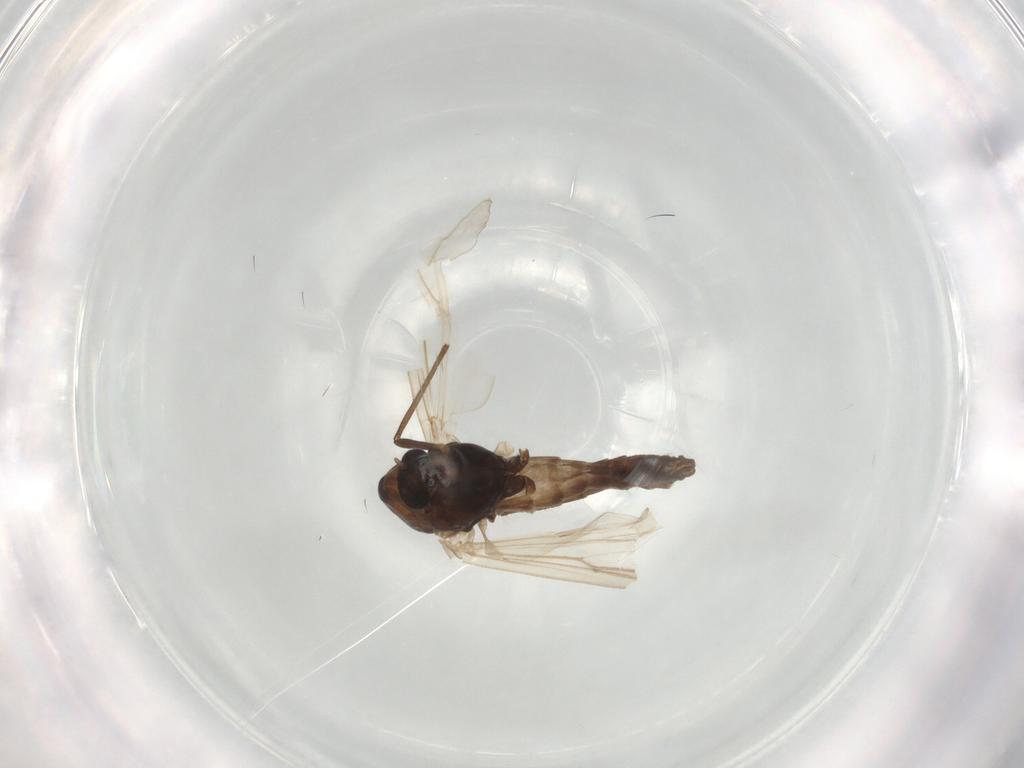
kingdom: Animalia
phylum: Arthropoda
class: Insecta
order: Diptera
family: Chironomidae
